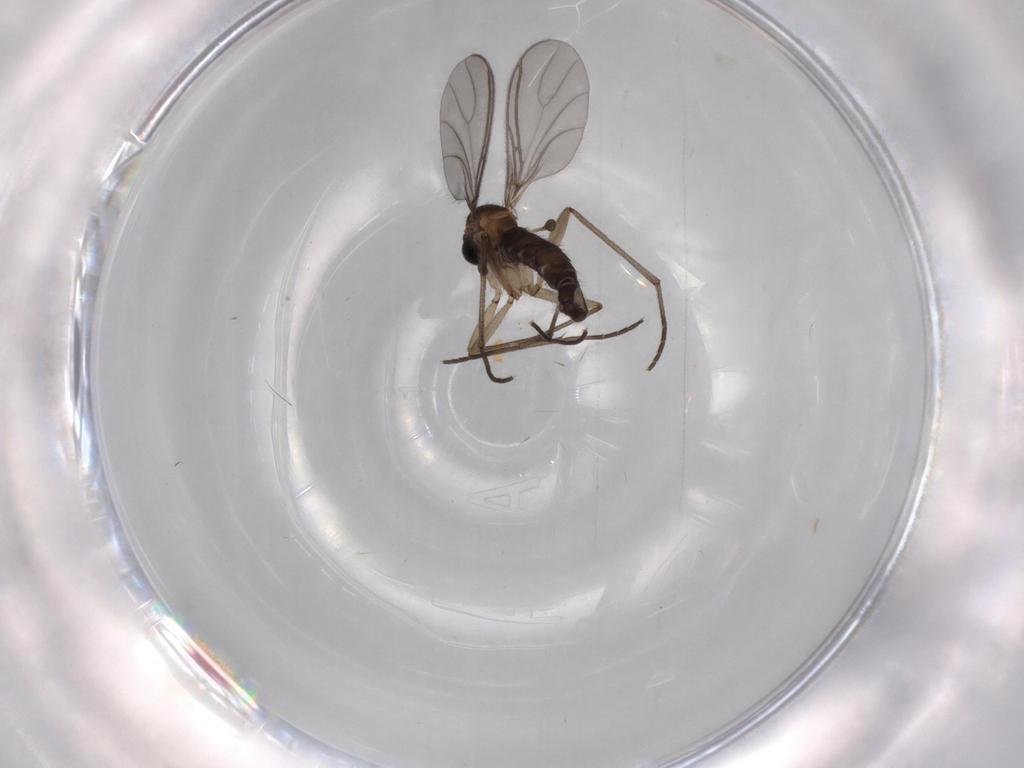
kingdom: Animalia
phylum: Arthropoda
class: Insecta
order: Diptera
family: Sciaridae
